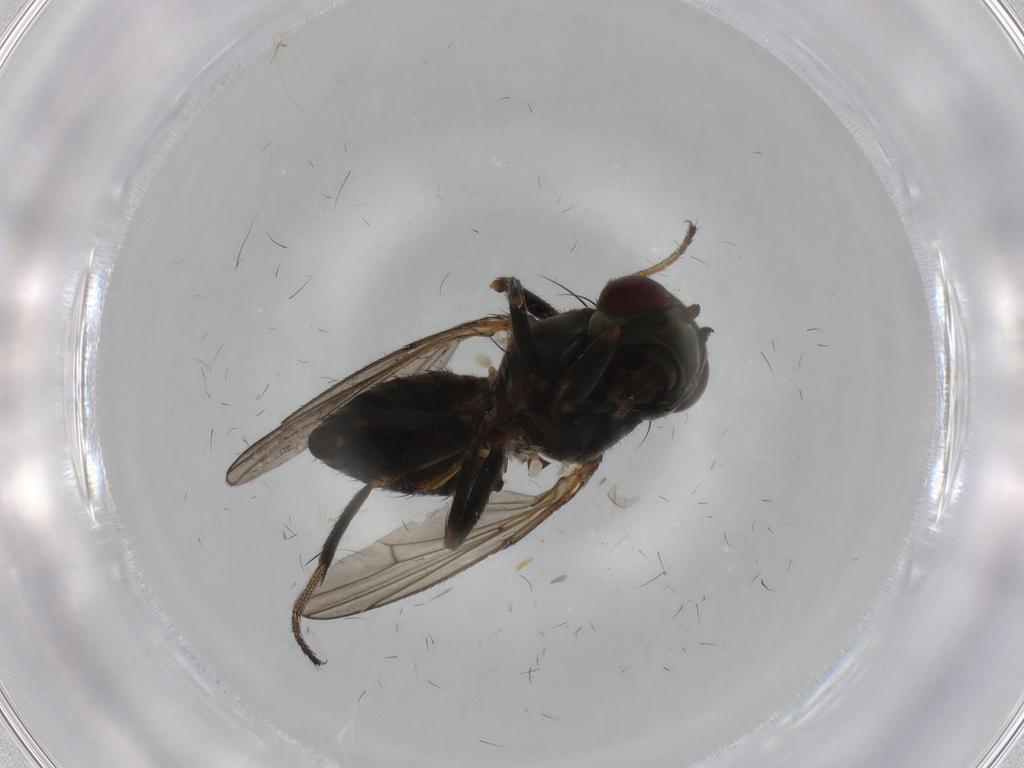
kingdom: Animalia
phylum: Arthropoda
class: Insecta
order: Diptera
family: Ephydridae
